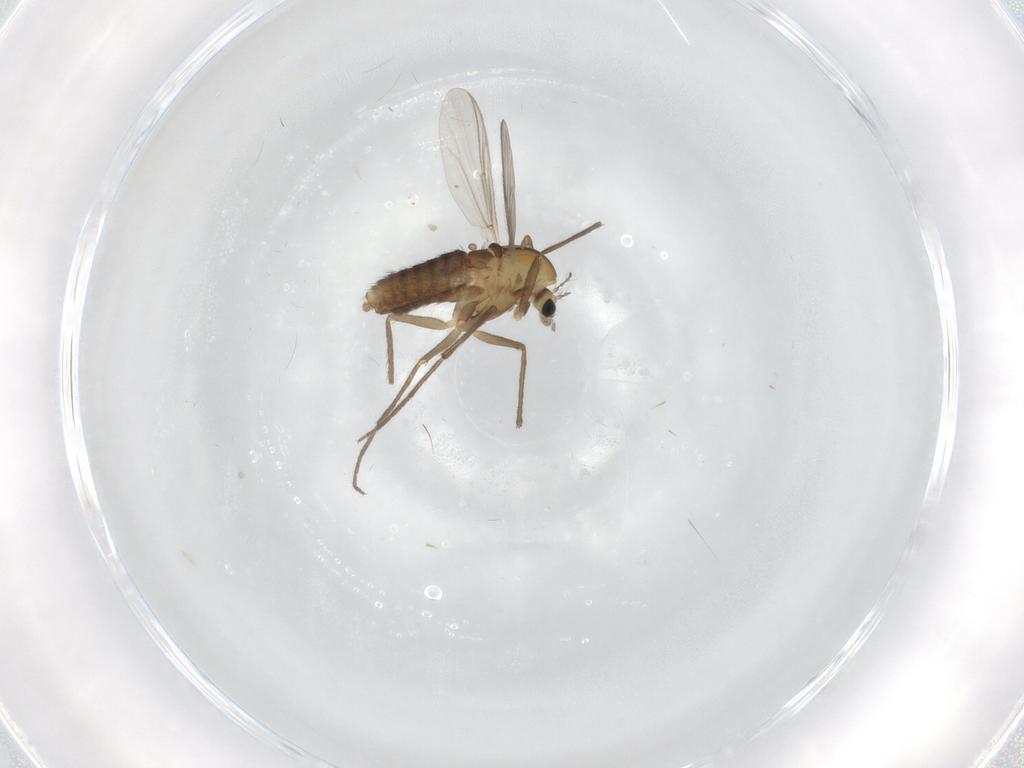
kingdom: Animalia
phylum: Arthropoda
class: Insecta
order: Diptera
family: Chironomidae
